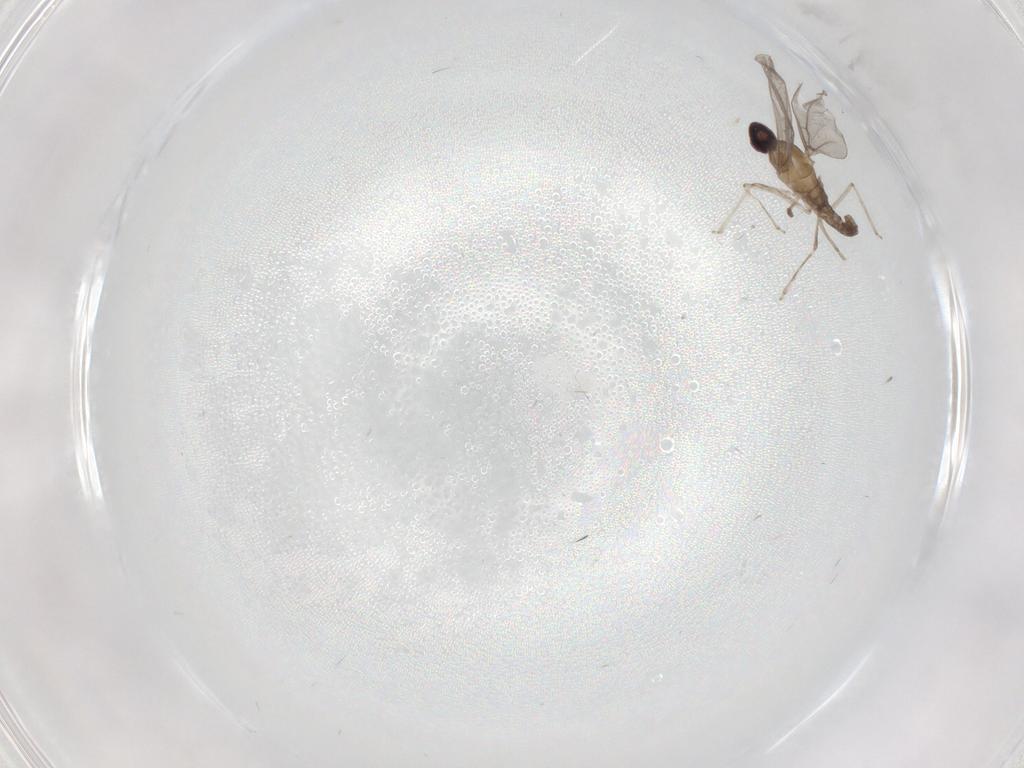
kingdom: Animalia
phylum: Arthropoda
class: Insecta
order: Diptera
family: Cecidomyiidae
